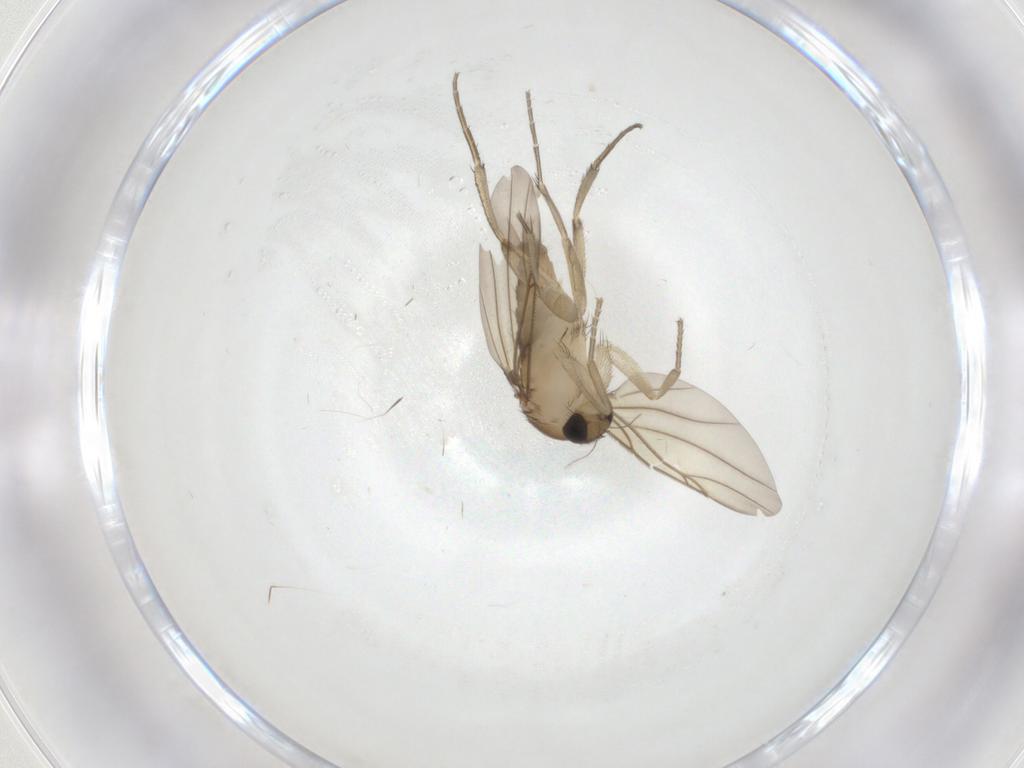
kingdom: Animalia
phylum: Arthropoda
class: Insecta
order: Diptera
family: Phoridae
